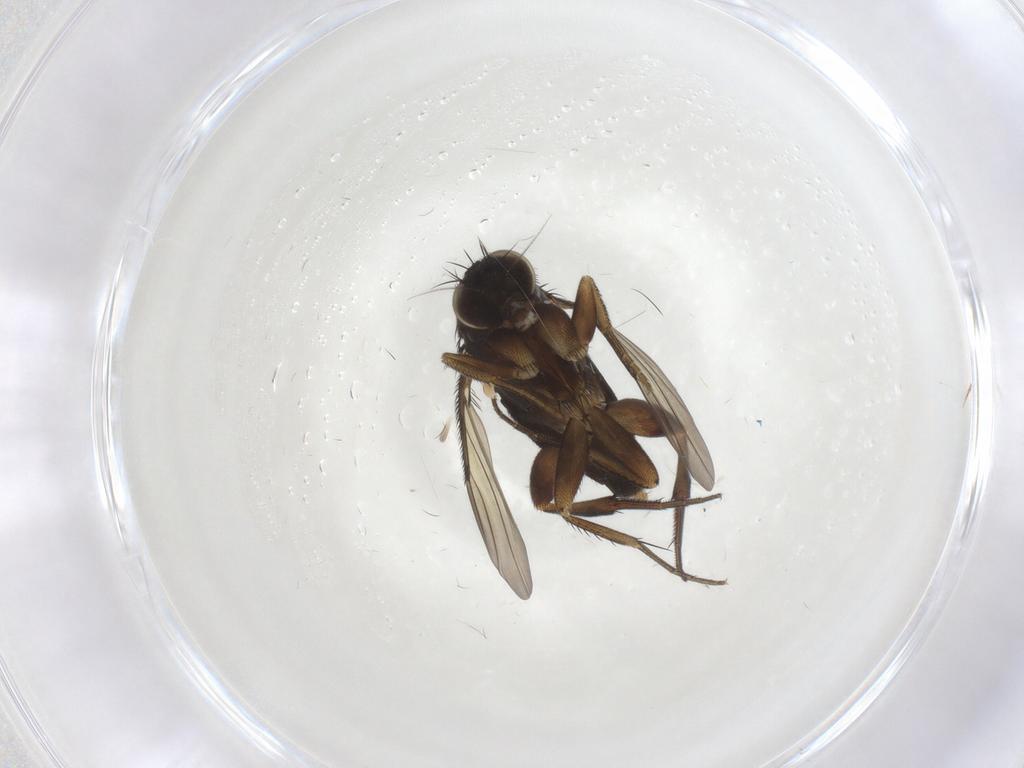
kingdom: Animalia
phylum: Arthropoda
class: Insecta
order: Diptera
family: Phoridae
